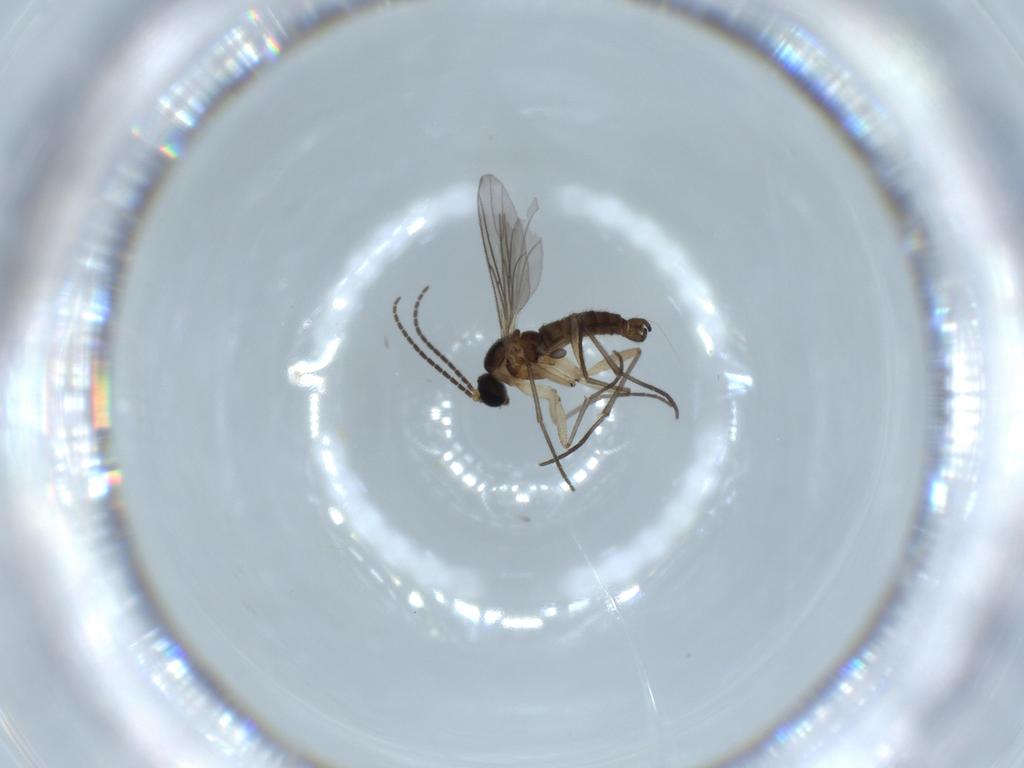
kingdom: Animalia
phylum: Arthropoda
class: Insecta
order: Diptera
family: Sciaridae
